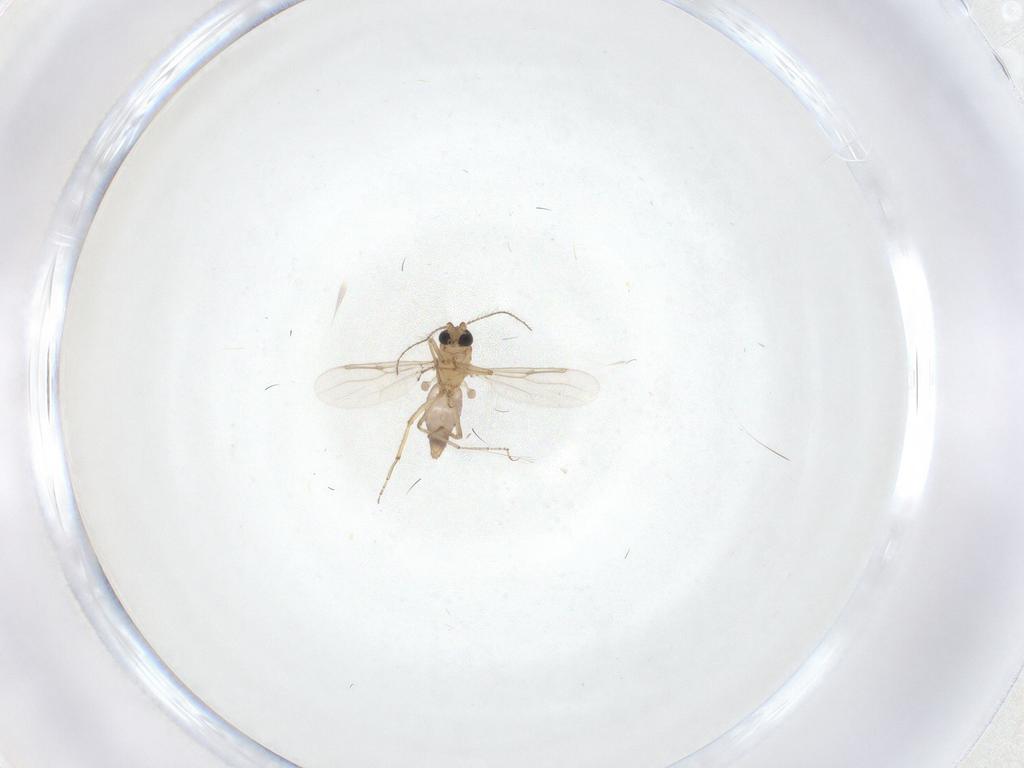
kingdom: Animalia
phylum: Arthropoda
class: Insecta
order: Diptera
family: Ceratopogonidae
